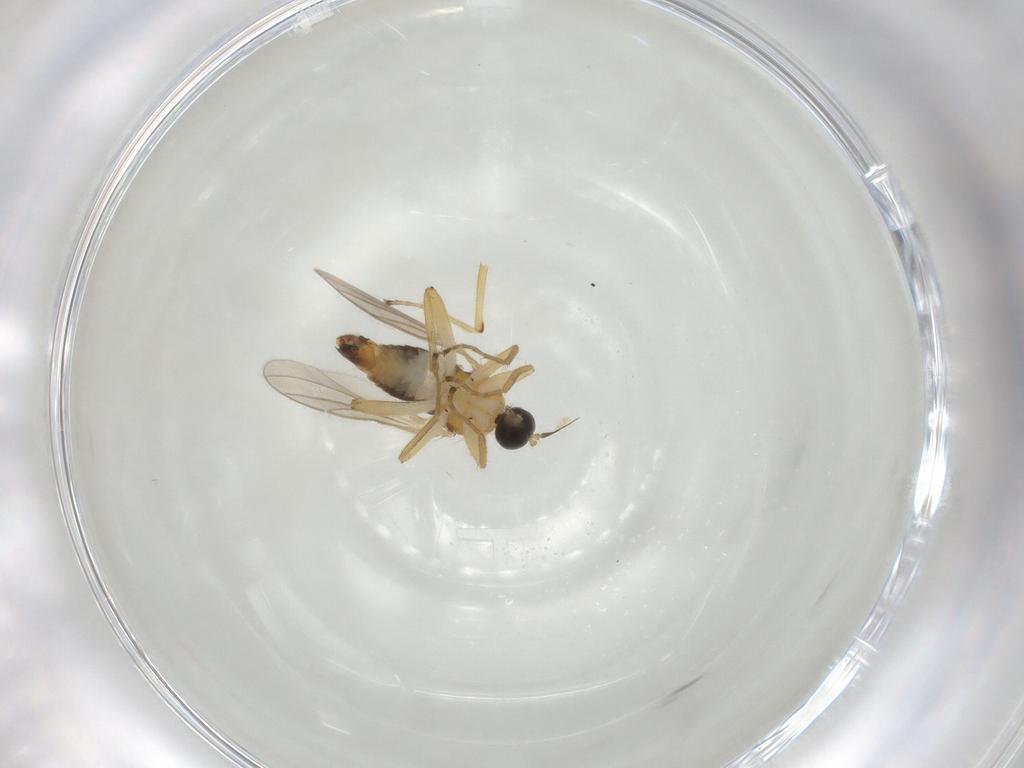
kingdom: Animalia
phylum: Arthropoda
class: Insecta
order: Diptera
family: Hybotidae
